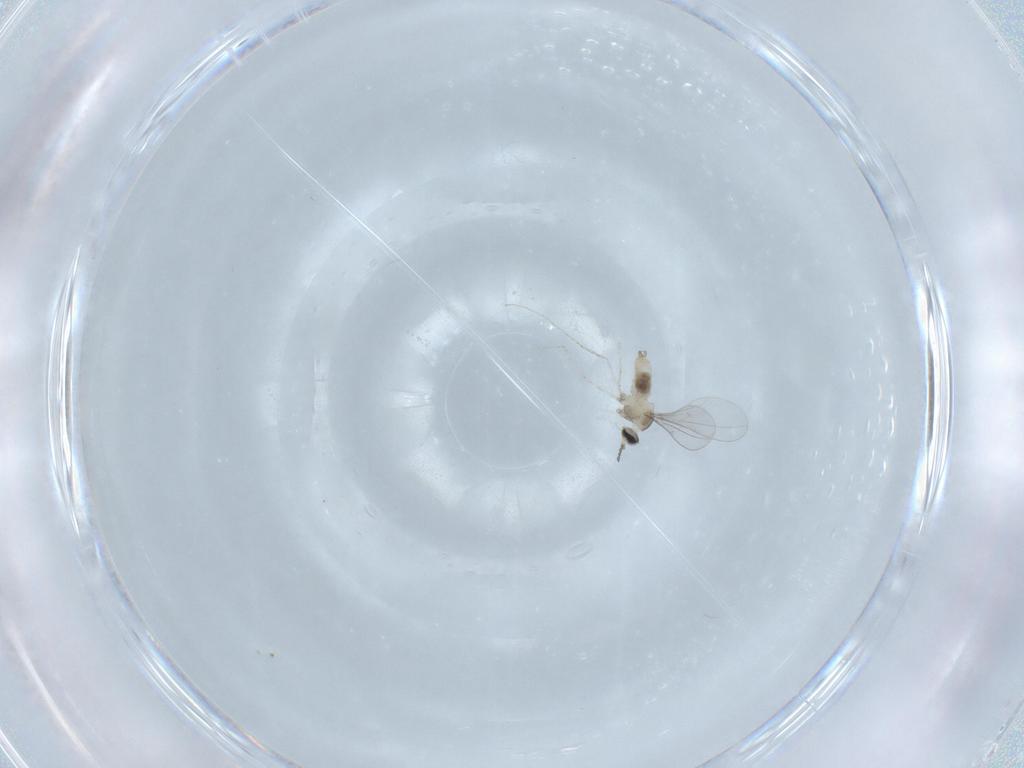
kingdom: Animalia
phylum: Arthropoda
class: Insecta
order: Diptera
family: Cecidomyiidae
